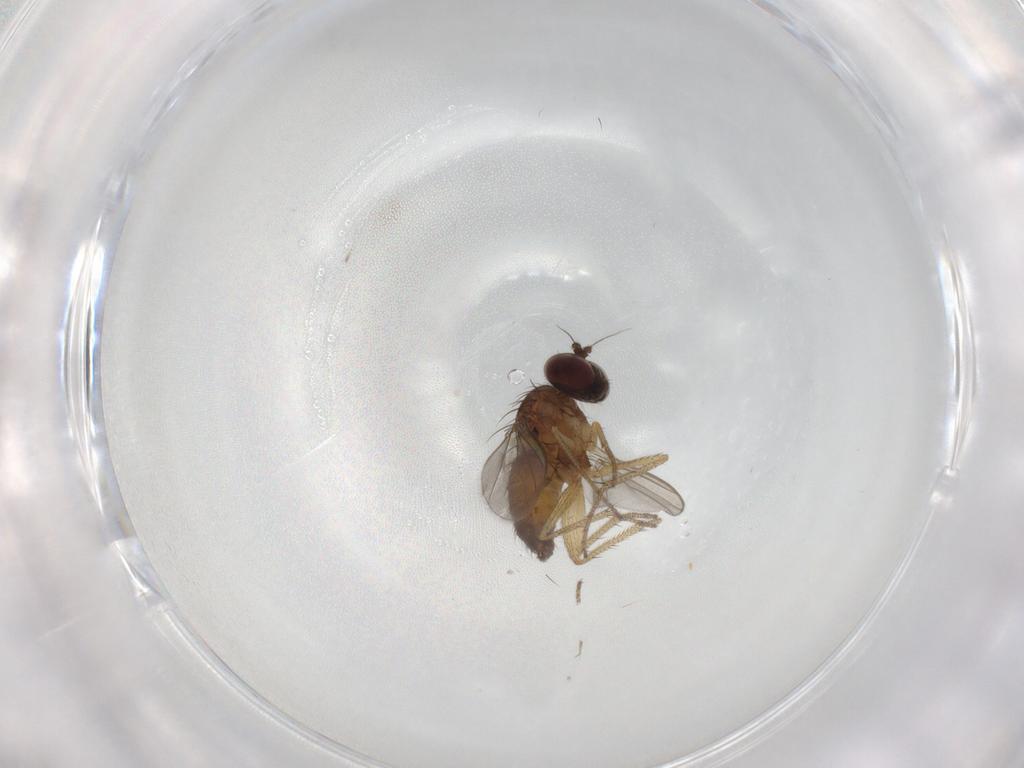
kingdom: Animalia
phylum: Arthropoda
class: Insecta
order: Diptera
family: Dolichopodidae
